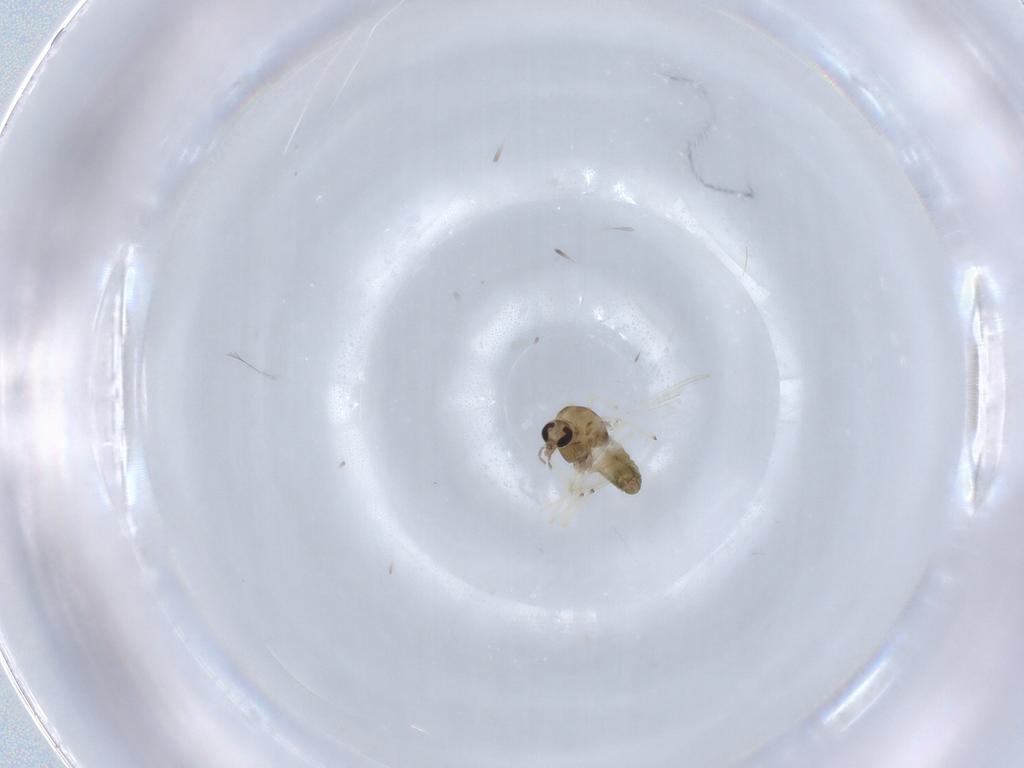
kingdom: Animalia
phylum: Arthropoda
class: Insecta
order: Diptera
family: Chironomidae
